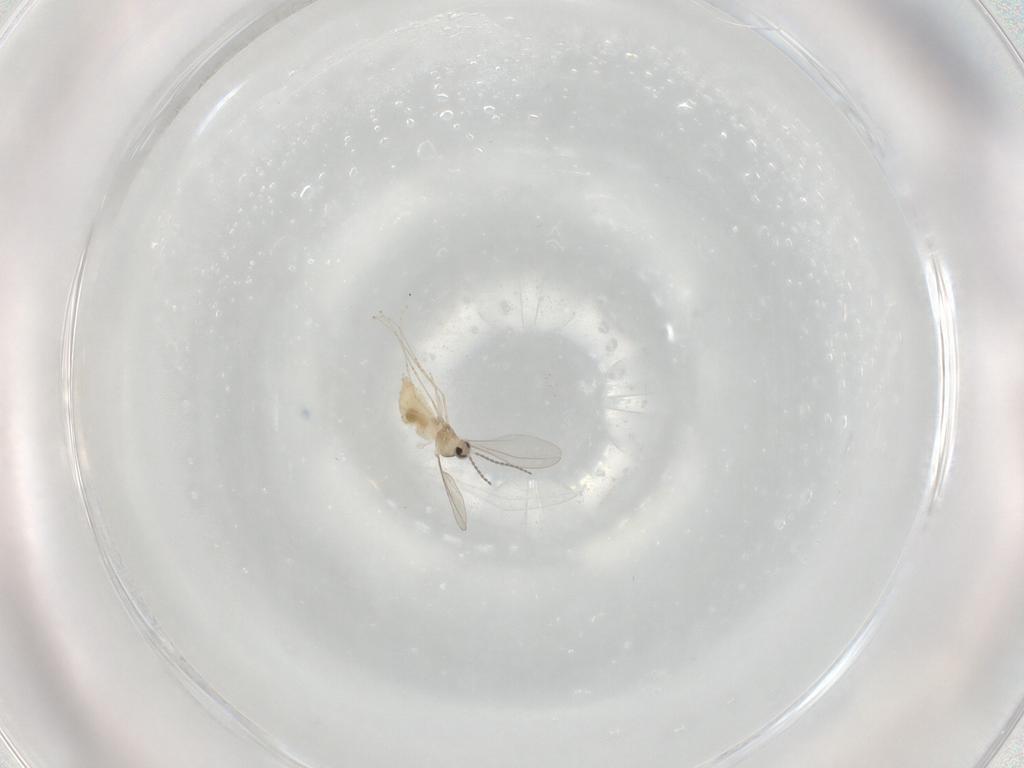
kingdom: Animalia
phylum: Arthropoda
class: Insecta
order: Diptera
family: Cecidomyiidae
